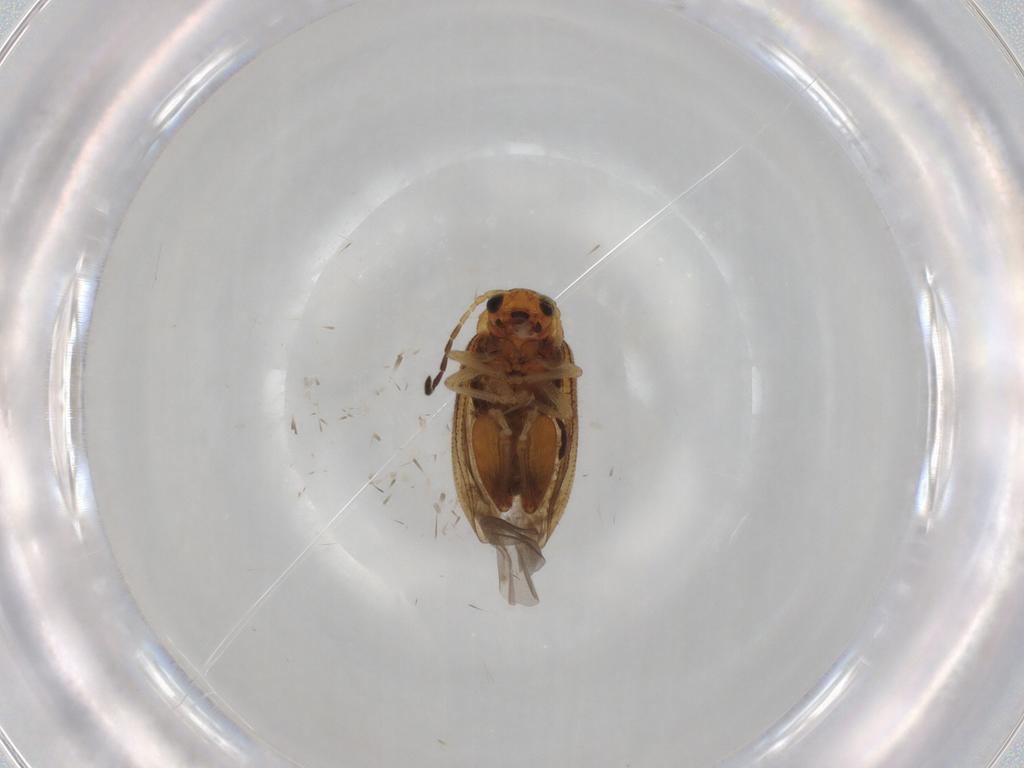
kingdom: Animalia
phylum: Arthropoda
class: Insecta
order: Coleoptera
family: Chrysomelidae
